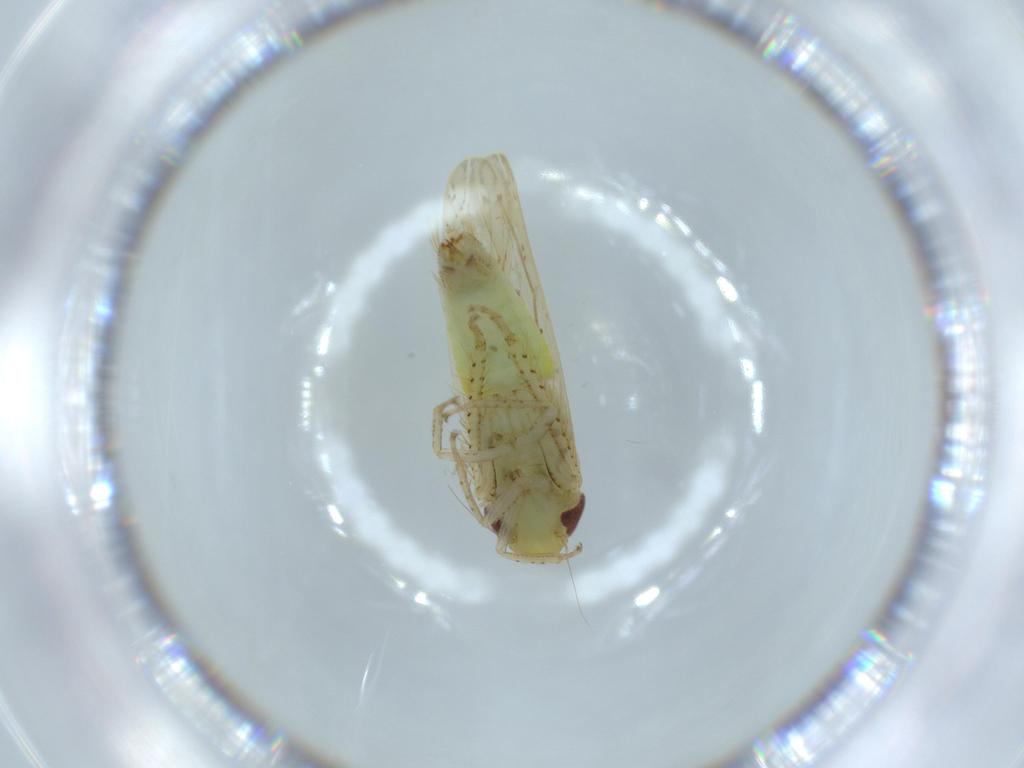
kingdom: Animalia
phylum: Arthropoda
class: Insecta
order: Hemiptera
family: Cicadellidae
